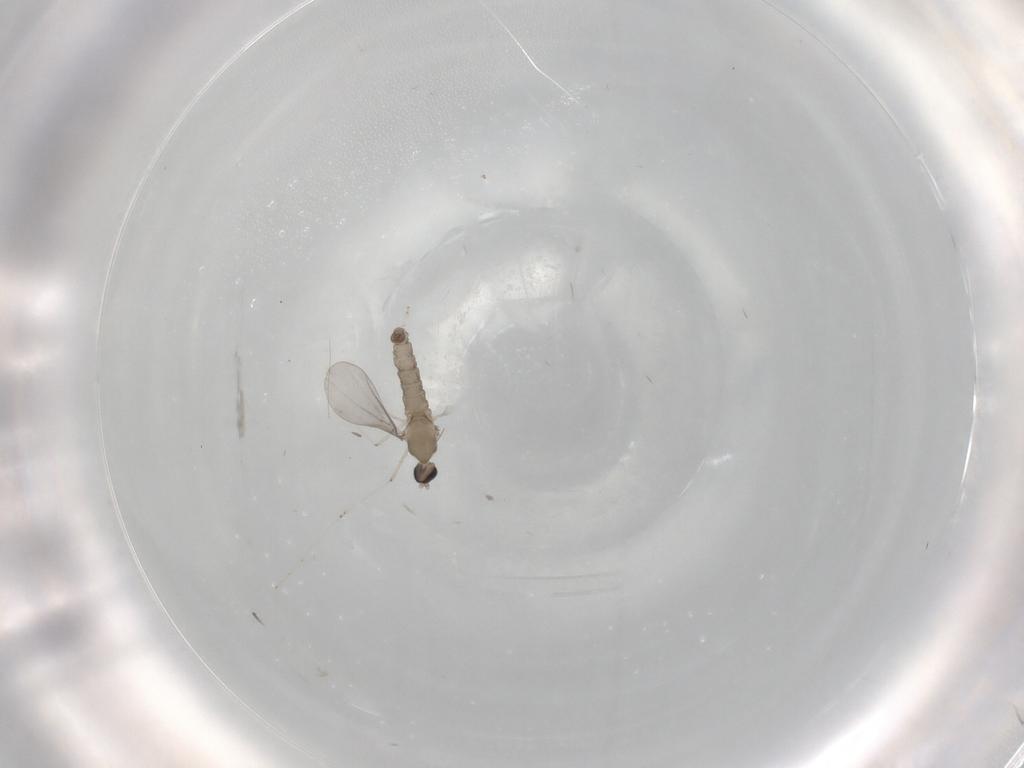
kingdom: Animalia
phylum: Arthropoda
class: Insecta
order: Diptera
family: Cecidomyiidae
